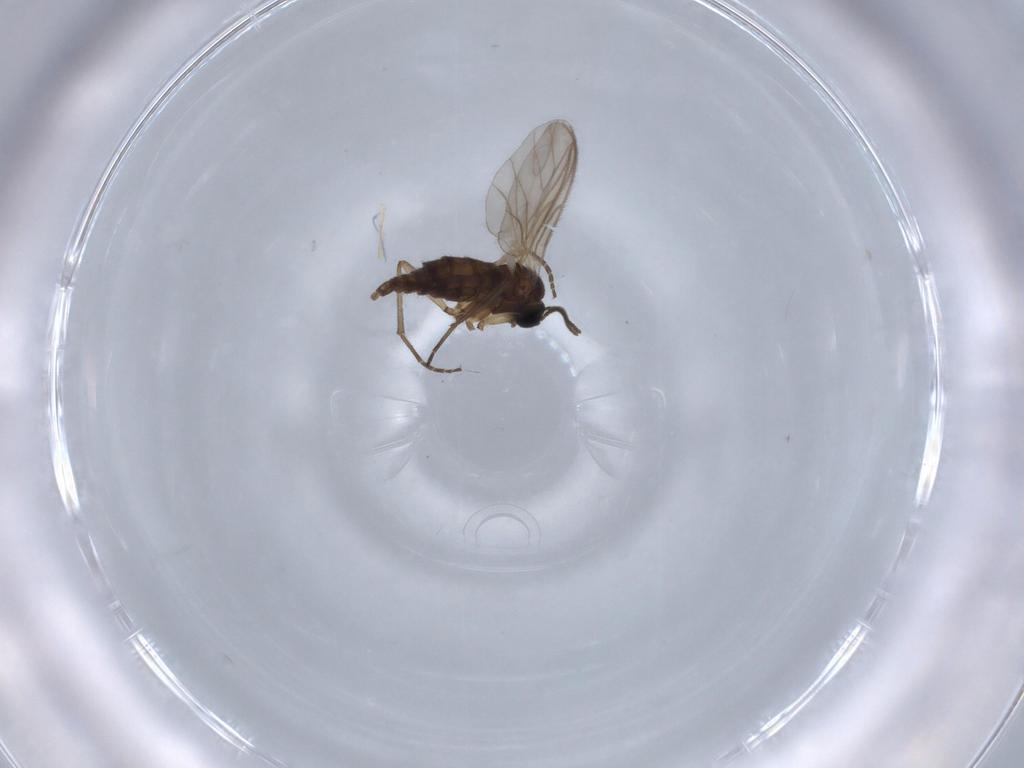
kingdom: Animalia
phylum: Arthropoda
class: Insecta
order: Diptera
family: Sciaridae
